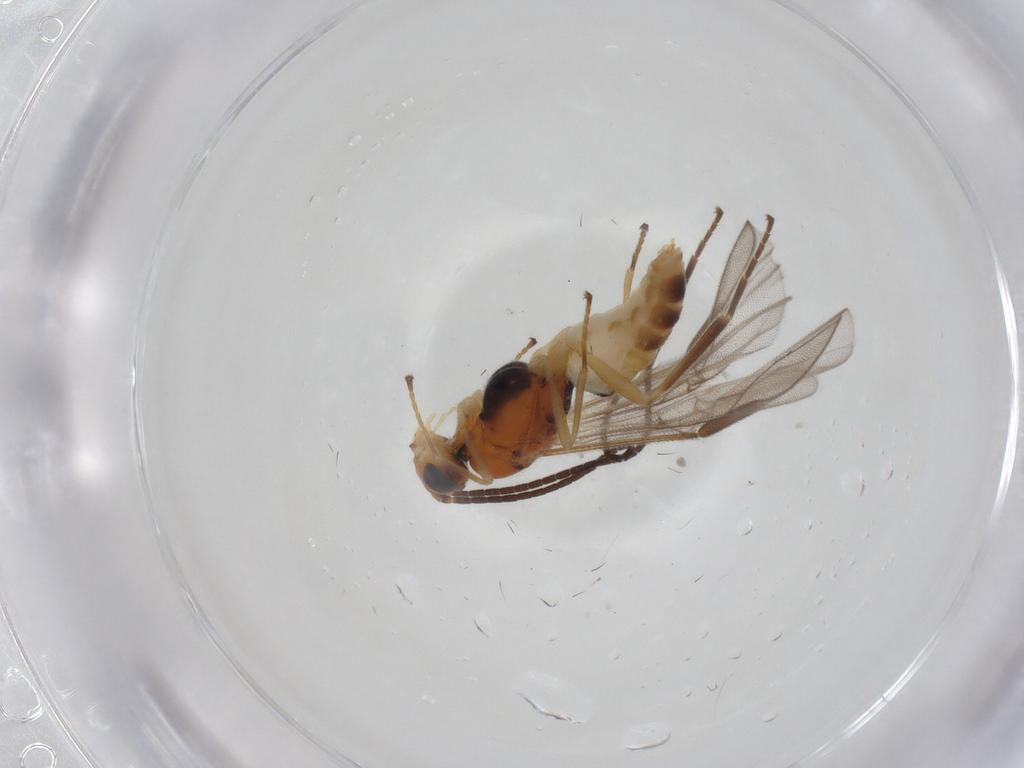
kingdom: Animalia
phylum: Arthropoda
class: Insecta
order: Hymenoptera
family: Braconidae
